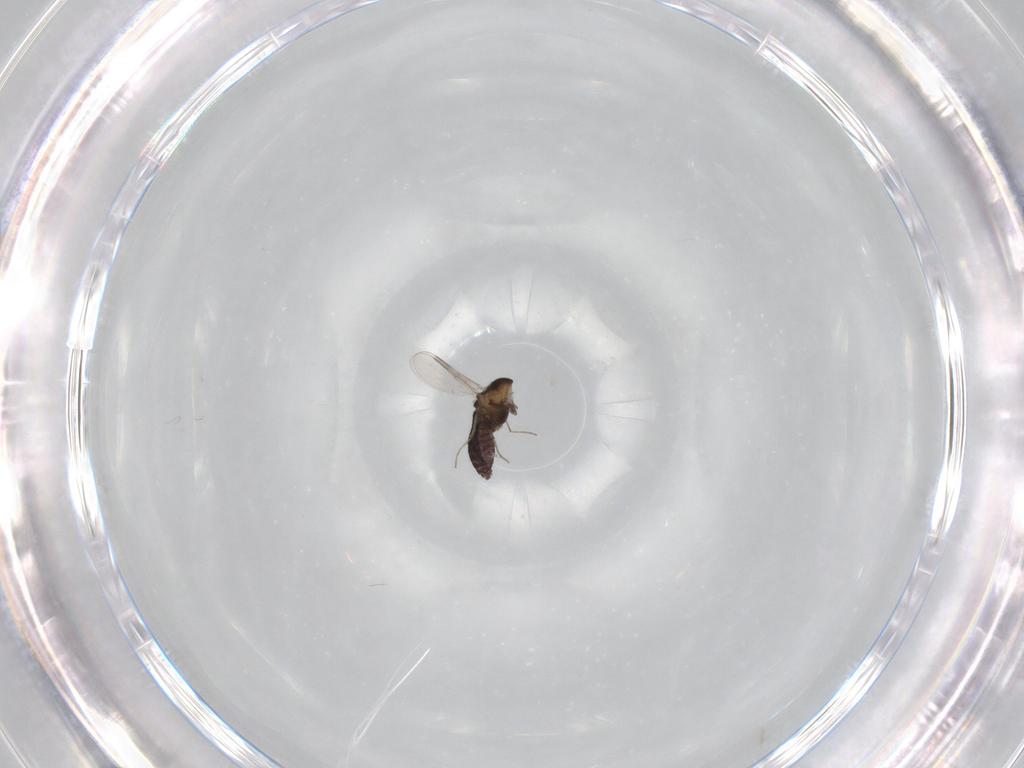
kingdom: Animalia
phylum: Arthropoda
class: Insecta
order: Diptera
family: Chironomidae
